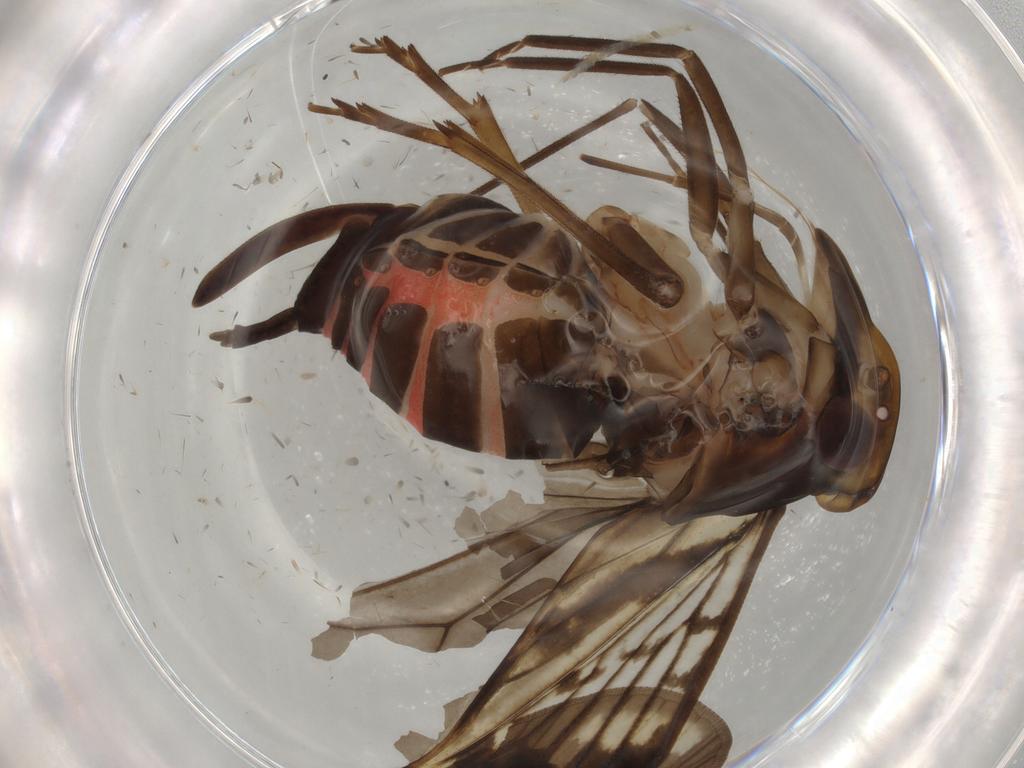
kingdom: Animalia
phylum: Arthropoda
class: Insecta
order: Hemiptera
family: Cixiidae
